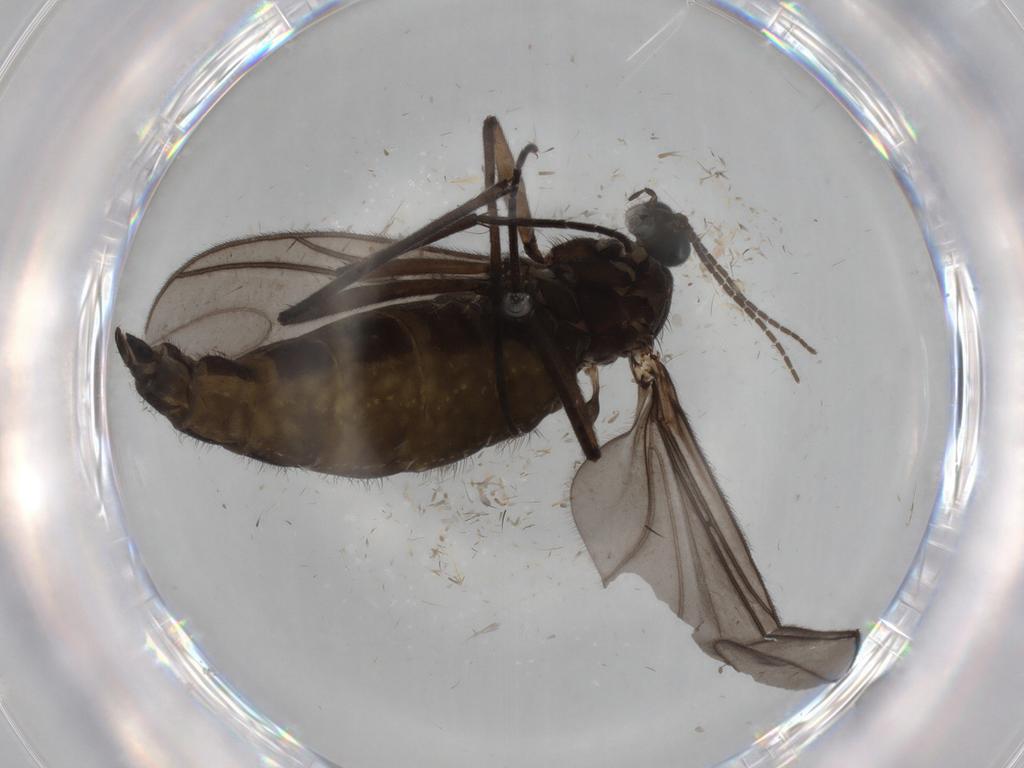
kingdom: Animalia
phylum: Arthropoda
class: Insecta
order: Diptera
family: Sciaridae
